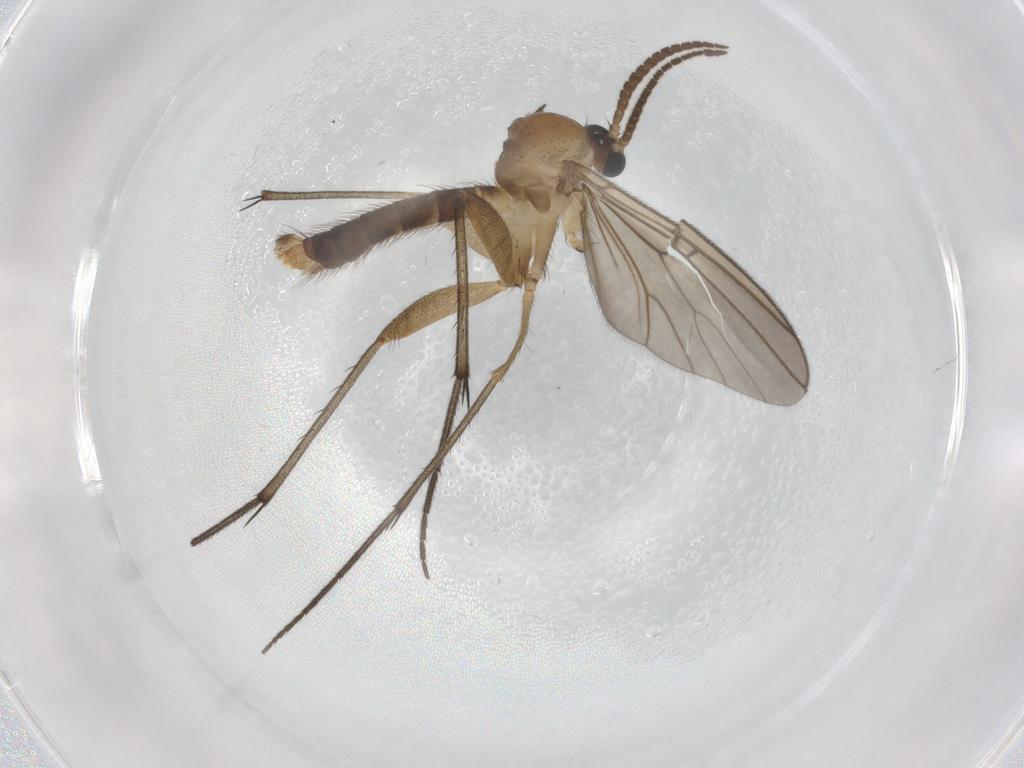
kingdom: Animalia
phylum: Arthropoda
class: Insecta
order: Diptera
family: Mycetophilidae
